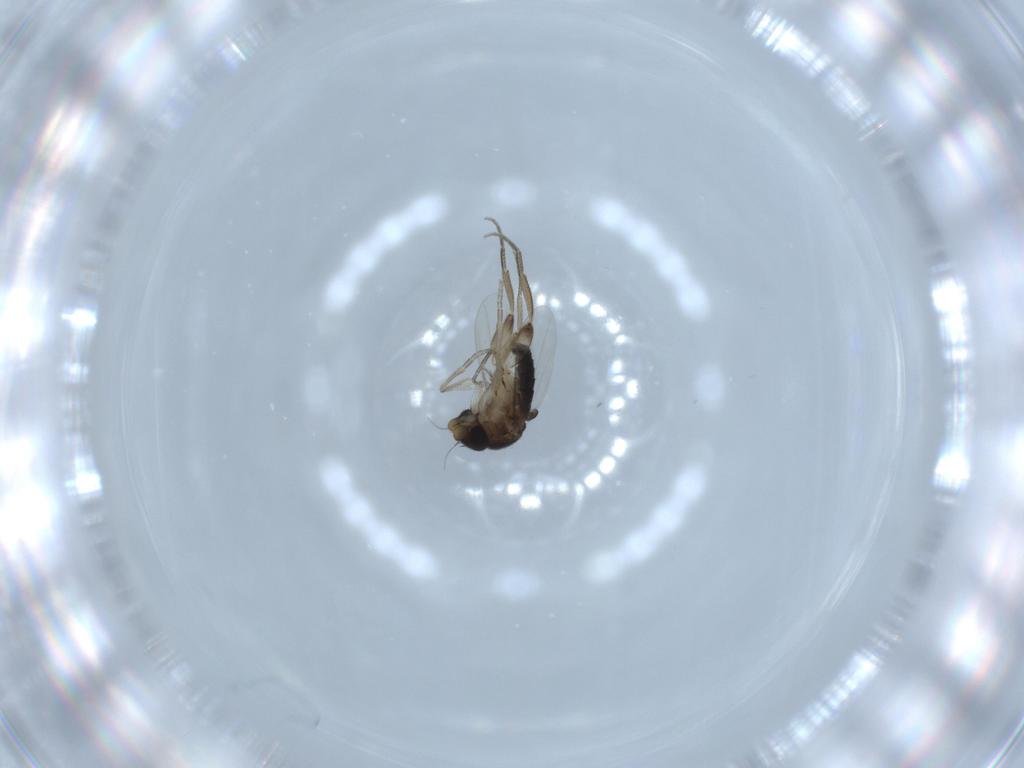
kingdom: Animalia
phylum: Arthropoda
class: Insecta
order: Diptera
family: Phoridae
